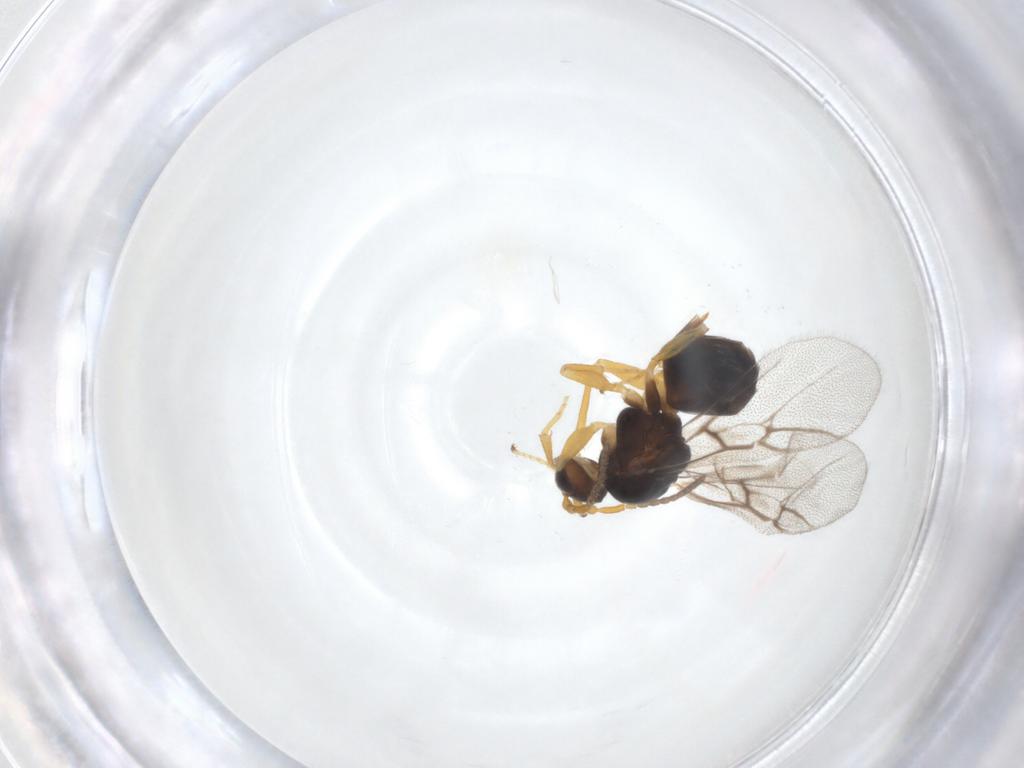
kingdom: Animalia
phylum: Arthropoda
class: Insecta
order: Hymenoptera
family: Cynipidae
